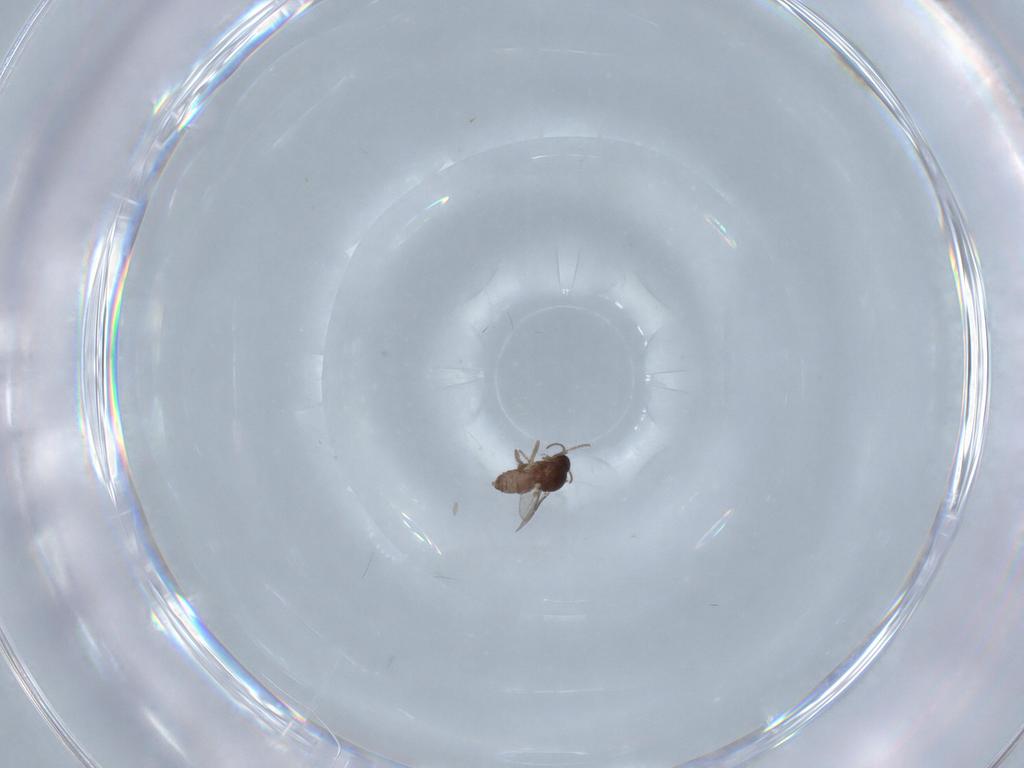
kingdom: Animalia
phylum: Arthropoda
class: Insecta
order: Diptera
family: Ceratopogonidae
